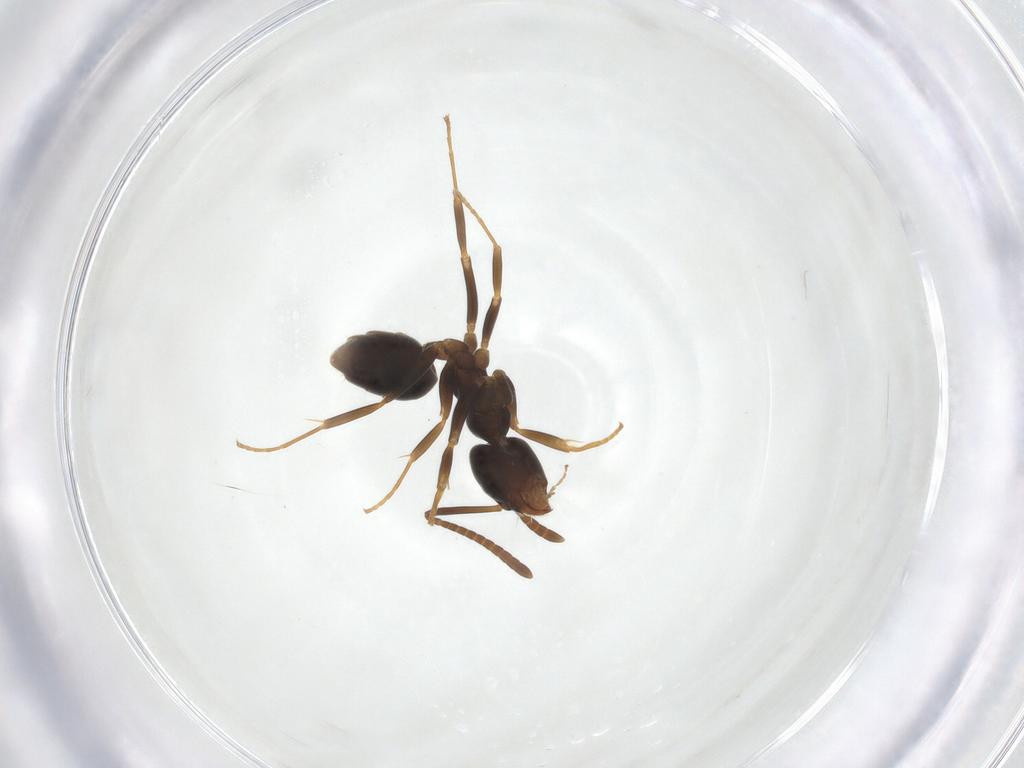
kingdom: Animalia
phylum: Arthropoda
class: Insecta
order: Hymenoptera
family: Formicidae
